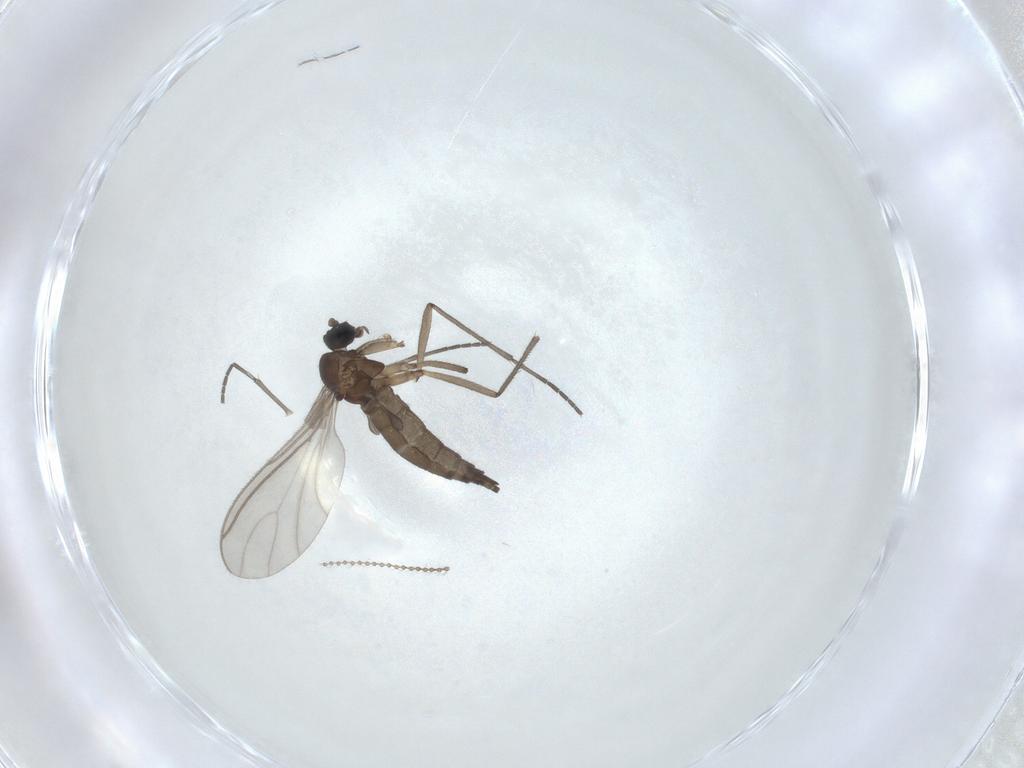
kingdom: Animalia
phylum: Arthropoda
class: Insecta
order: Diptera
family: Cecidomyiidae
